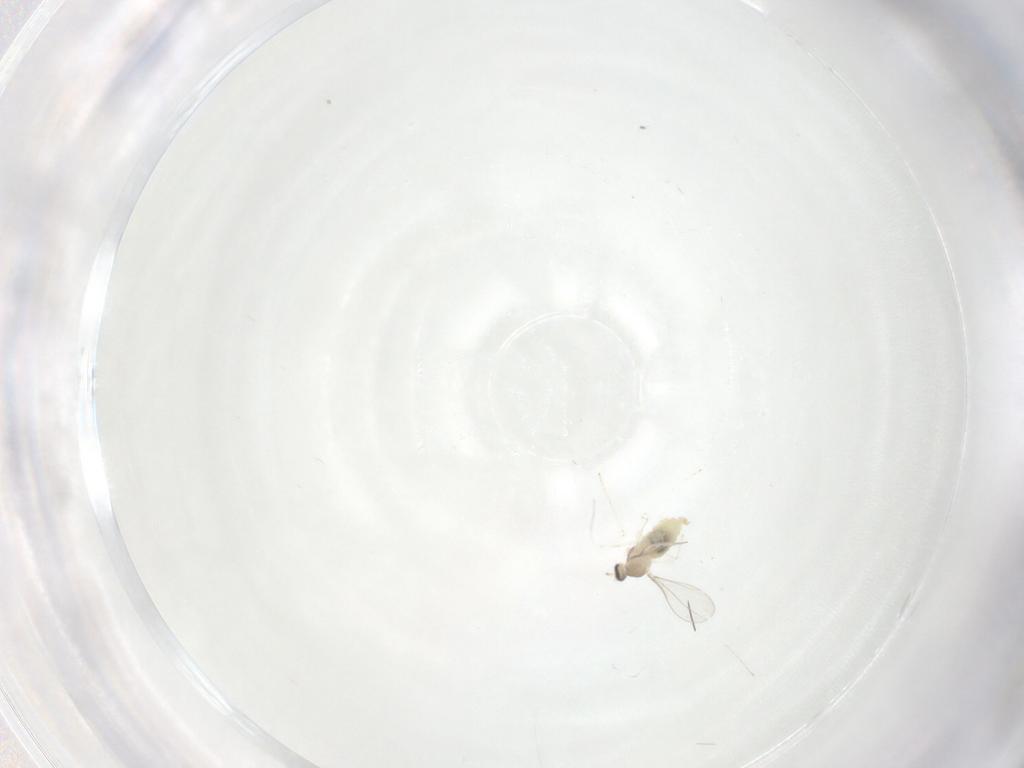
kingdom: Animalia
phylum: Arthropoda
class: Insecta
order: Diptera
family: Cecidomyiidae
